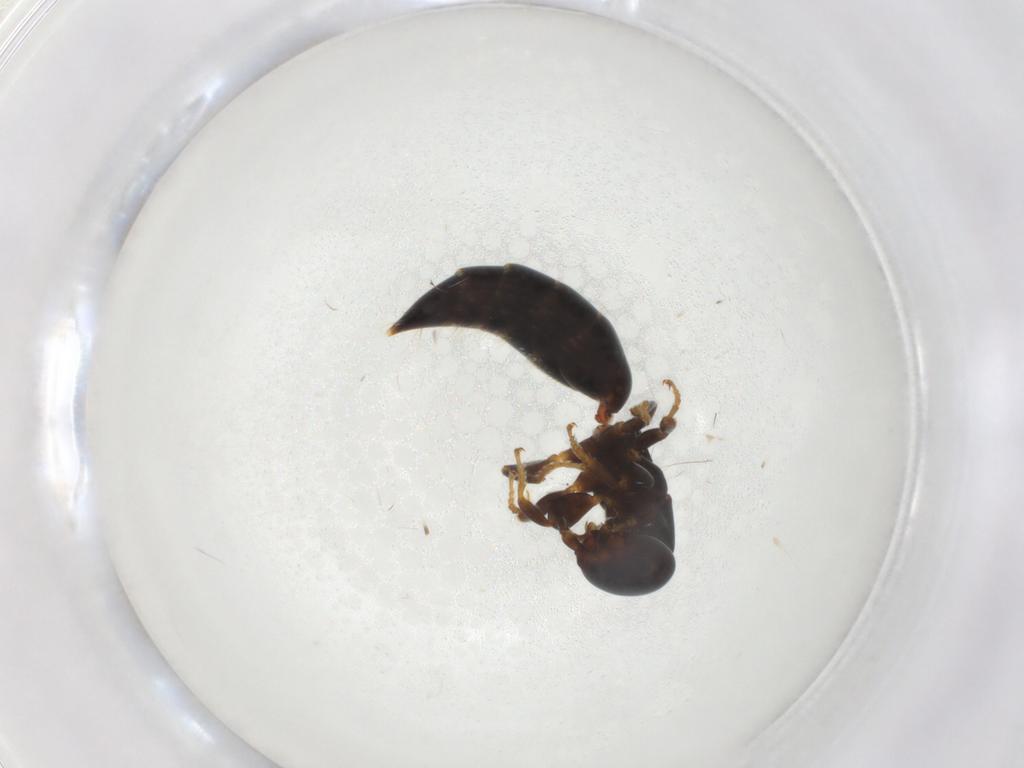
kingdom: Animalia
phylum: Arthropoda
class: Insecta
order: Hymenoptera
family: Bethylidae
